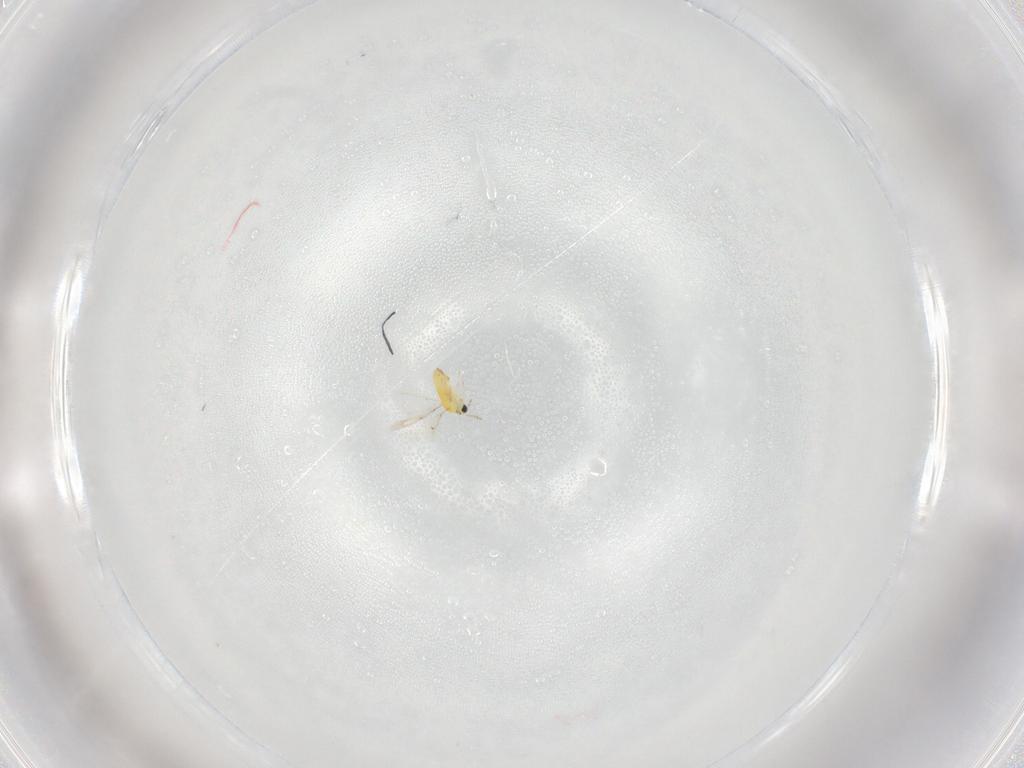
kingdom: Animalia
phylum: Arthropoda
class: Insecta
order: Hymenoptera
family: Trichogrammatidae
